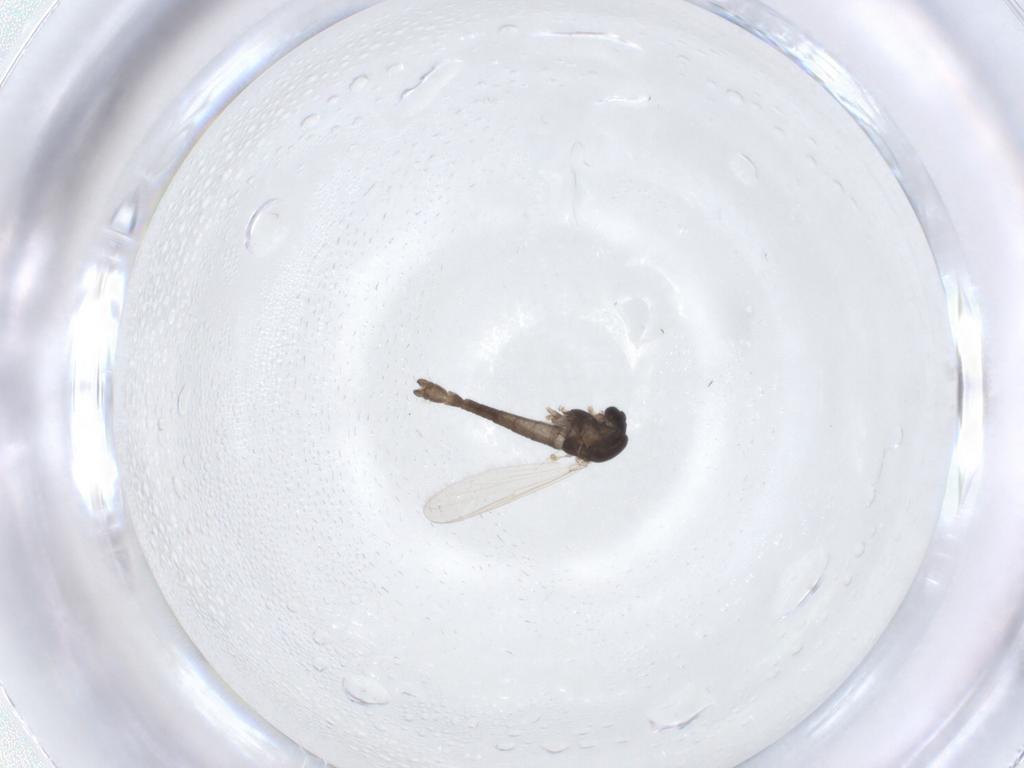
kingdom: Animalia
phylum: Arthropoda
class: Insecta
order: Diptera
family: Chironomidae
